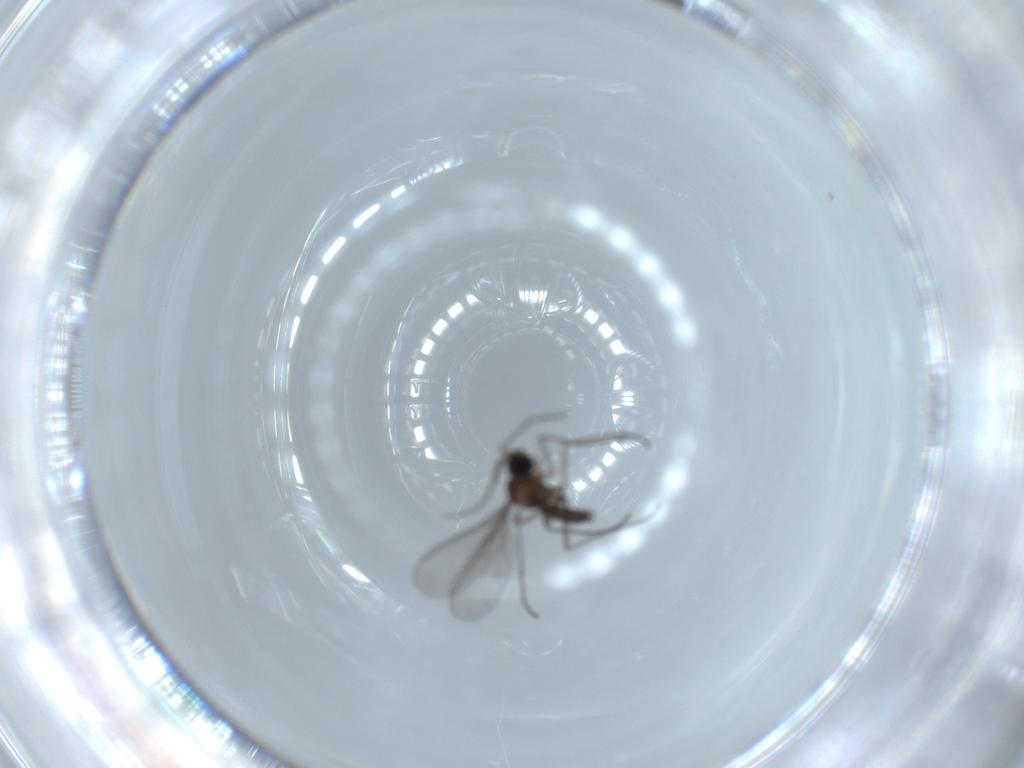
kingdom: Animalia
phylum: Arthropoda
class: Insecta
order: Diptera
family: Sciaridae
